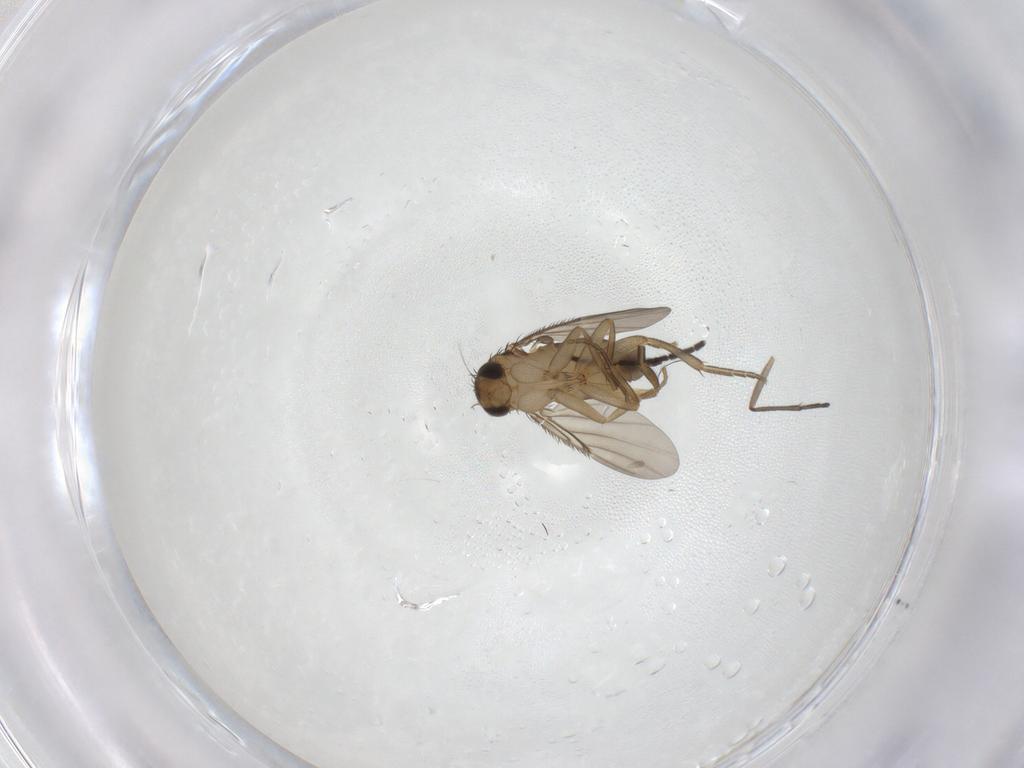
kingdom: Animalia
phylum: Arthropoda
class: Insecta
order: Diptera
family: Sciaridae
